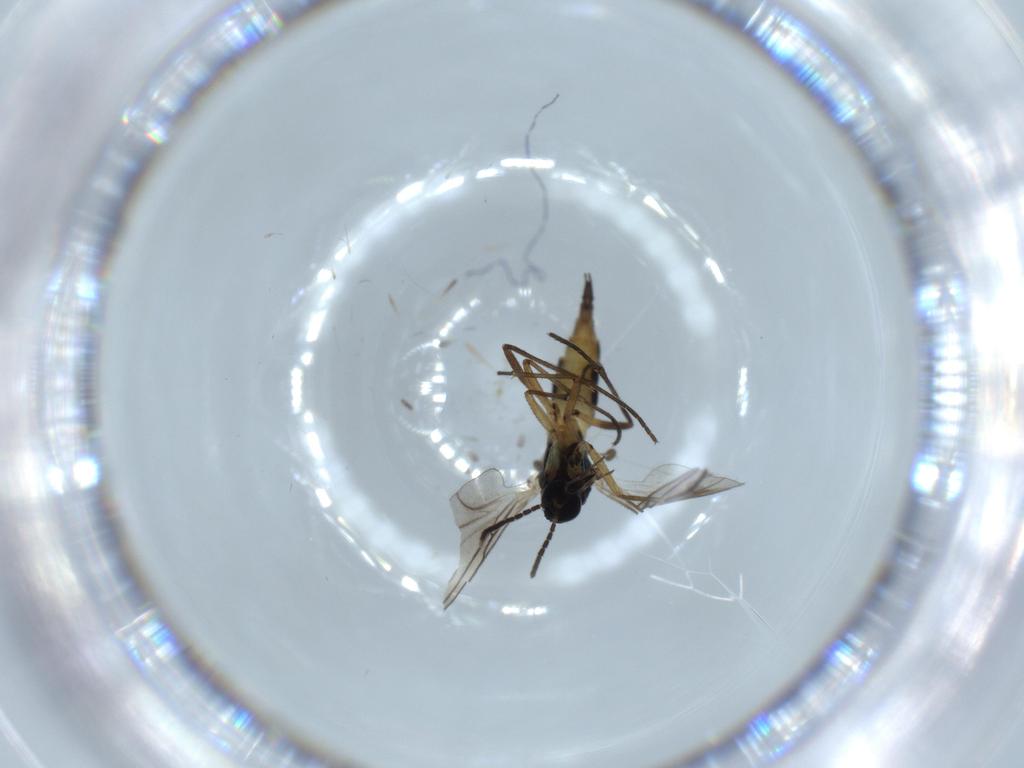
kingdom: Animalia
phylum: Arthropoda
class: Insecta
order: Diptera
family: Sciaridae
